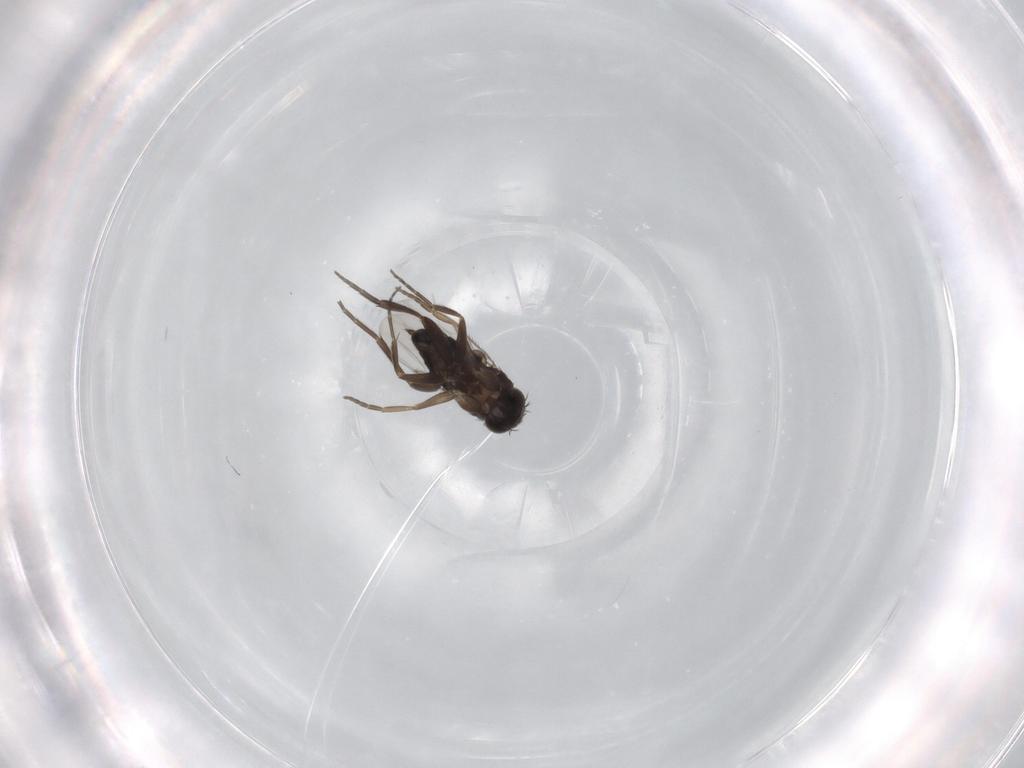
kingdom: Animalia
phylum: Arthropoda
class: Insecta
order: Diptera
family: Phoridae
